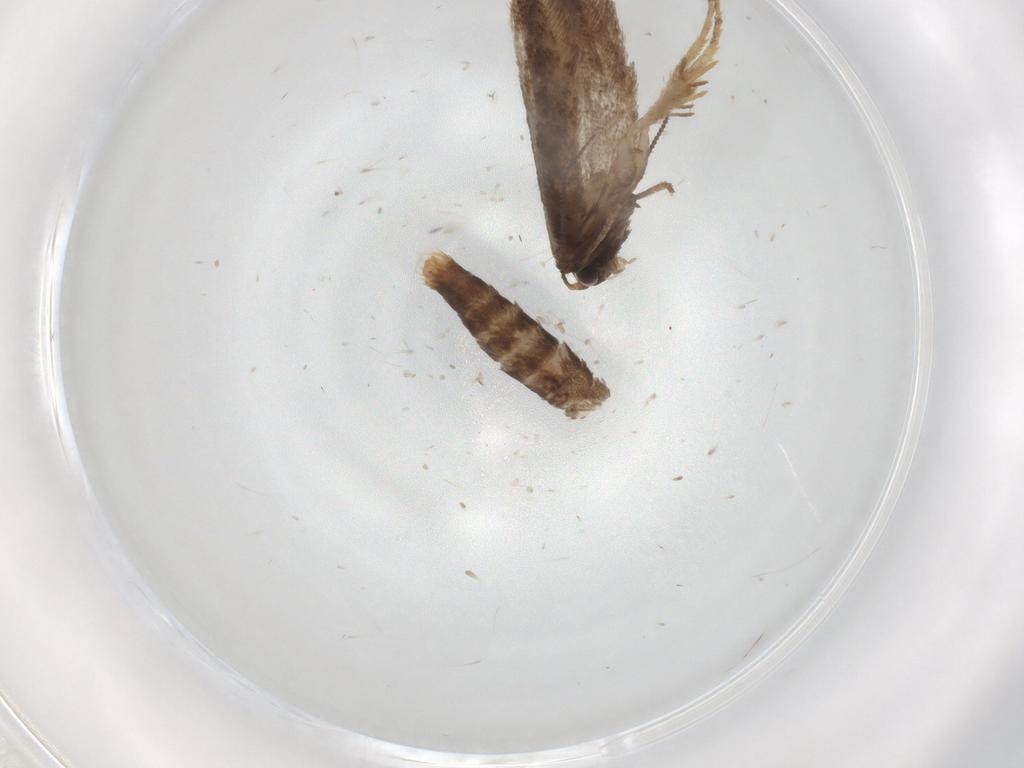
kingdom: Animalia
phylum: Arthropoda
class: Insecta
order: Lepidoptera
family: Nepticulidae
